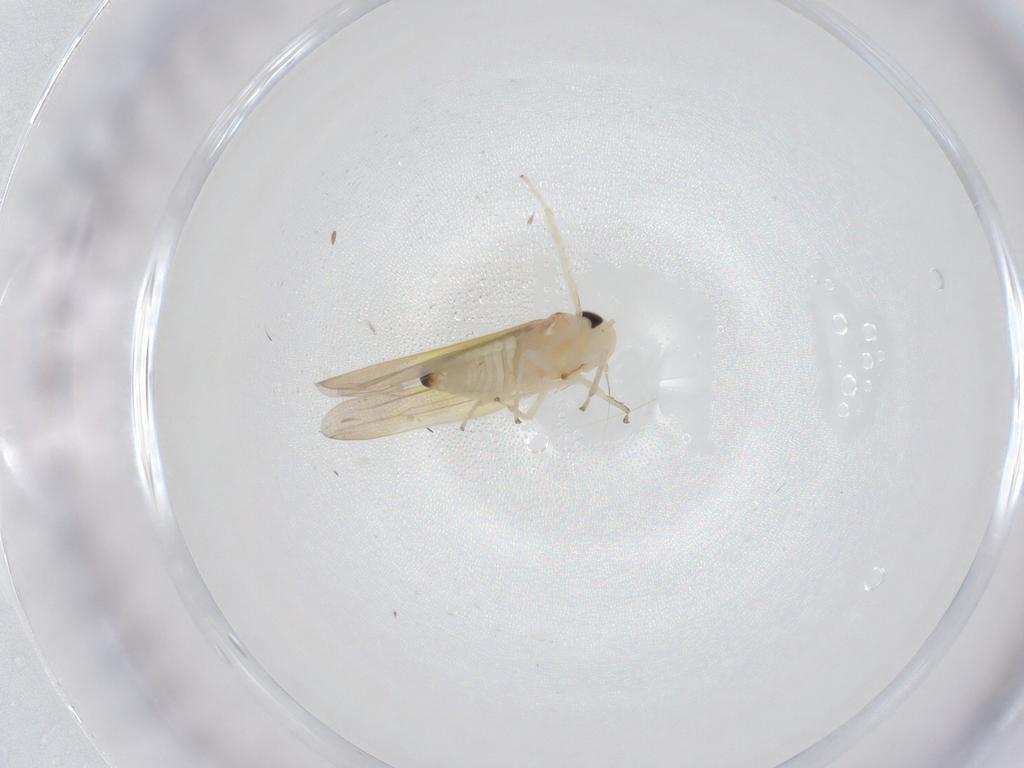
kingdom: Animalia
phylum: Arthropoda
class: Insecta
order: Hemiptera
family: Cicadellidae
